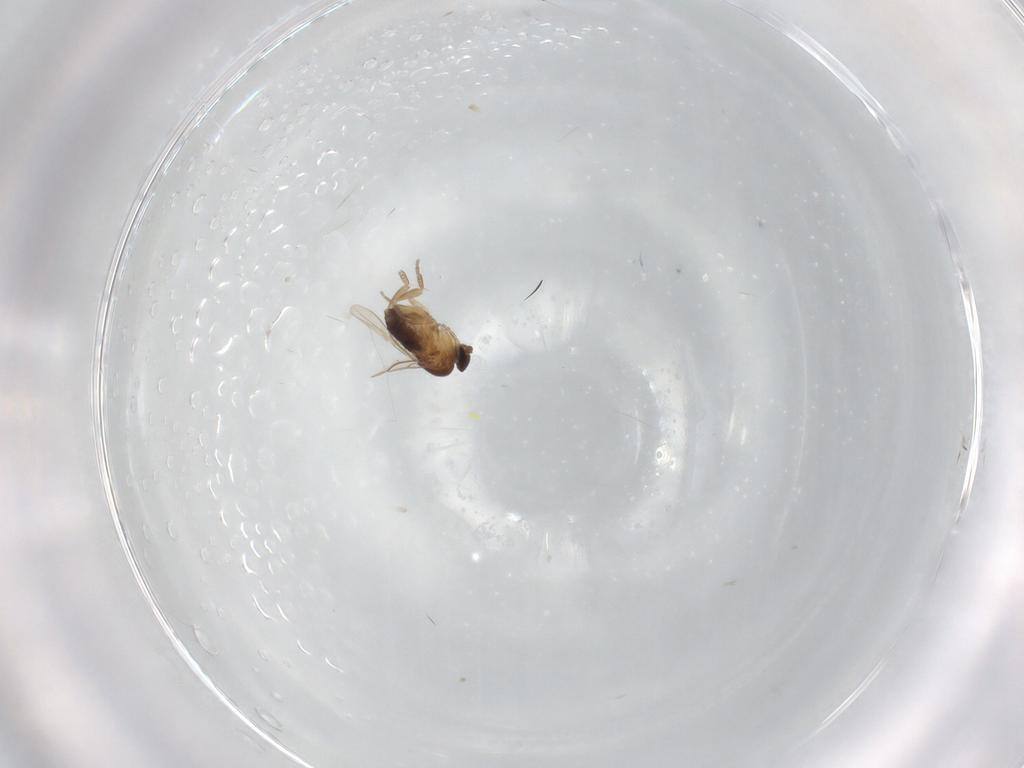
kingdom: Animalia
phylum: Arthropoda
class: Insecta
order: Diptera
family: Phoridae
